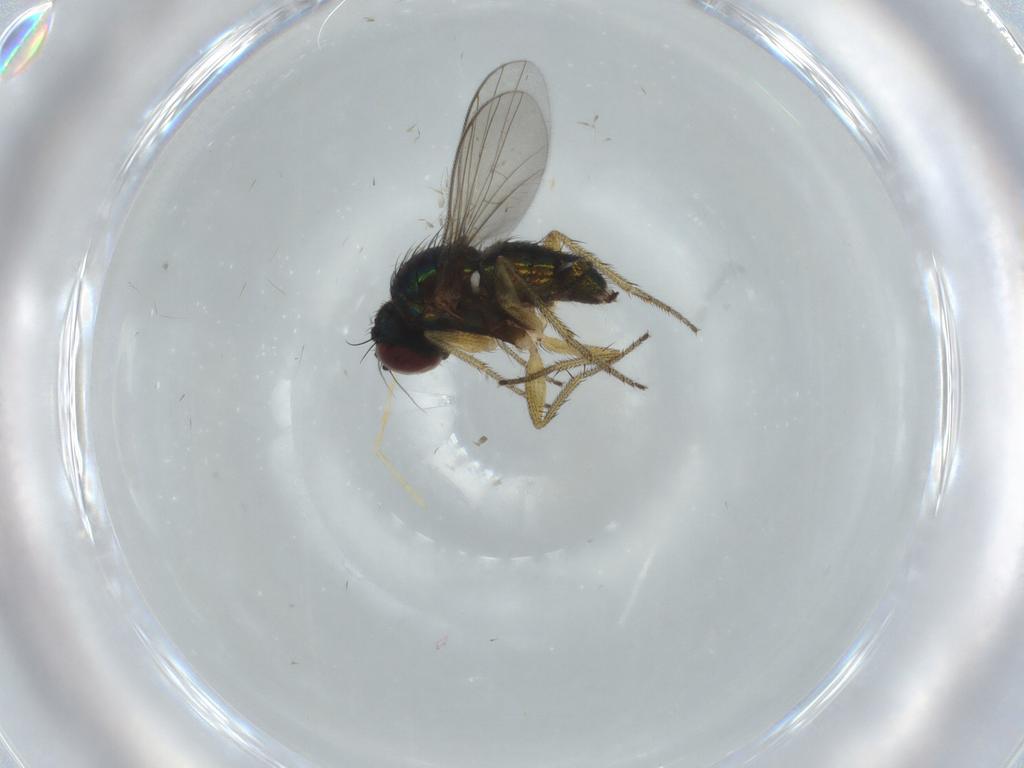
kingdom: Animalia
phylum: Arthropoda
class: Insecta
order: Diptera
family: Dolichopodidae
